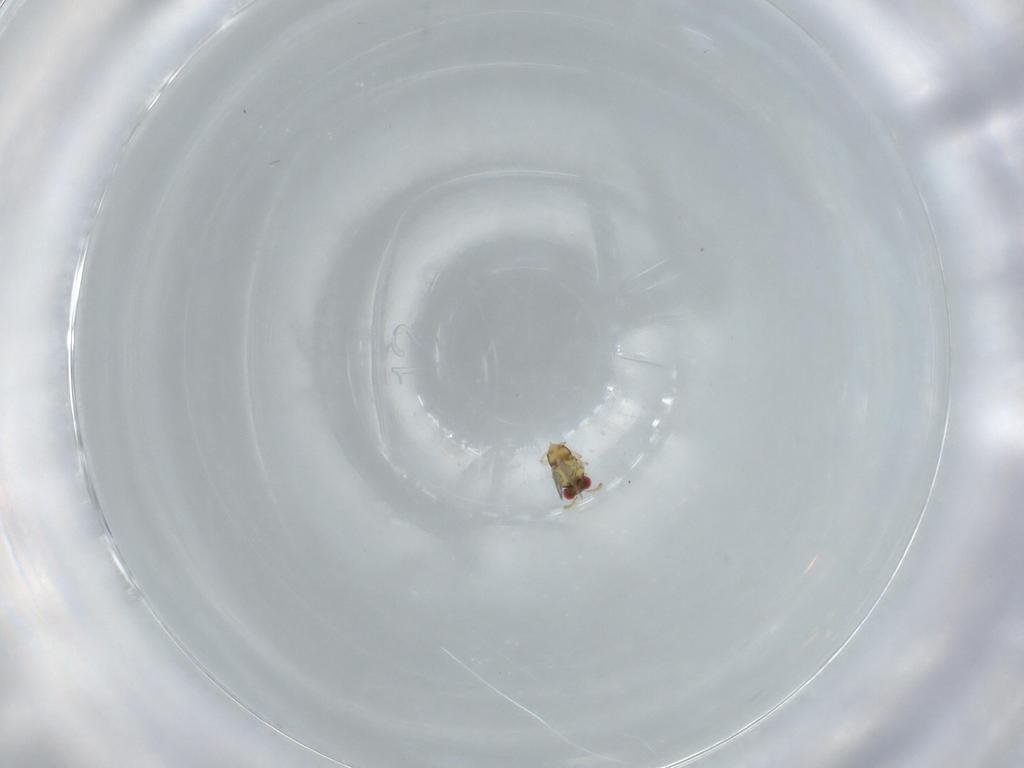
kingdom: Animalia
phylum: Arthropoda
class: Insecta
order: Hymenoptera
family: Aphelinidae
